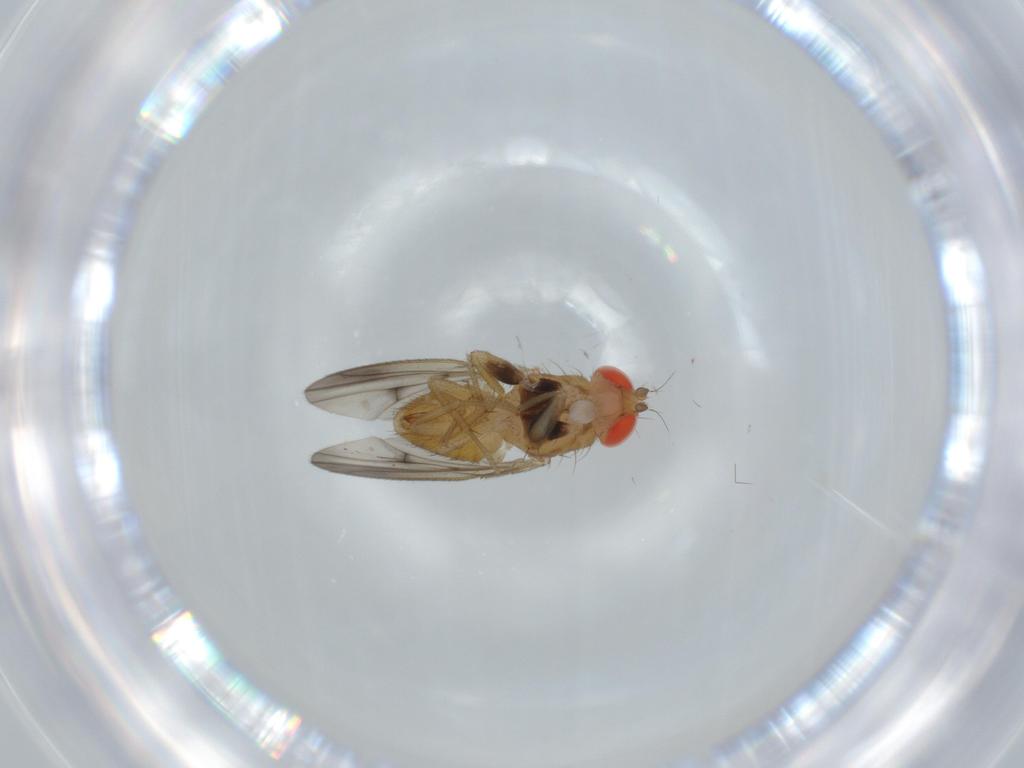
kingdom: Animalia
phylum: Arthropoda
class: Insecta
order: Diptera
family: Drosophilidae
